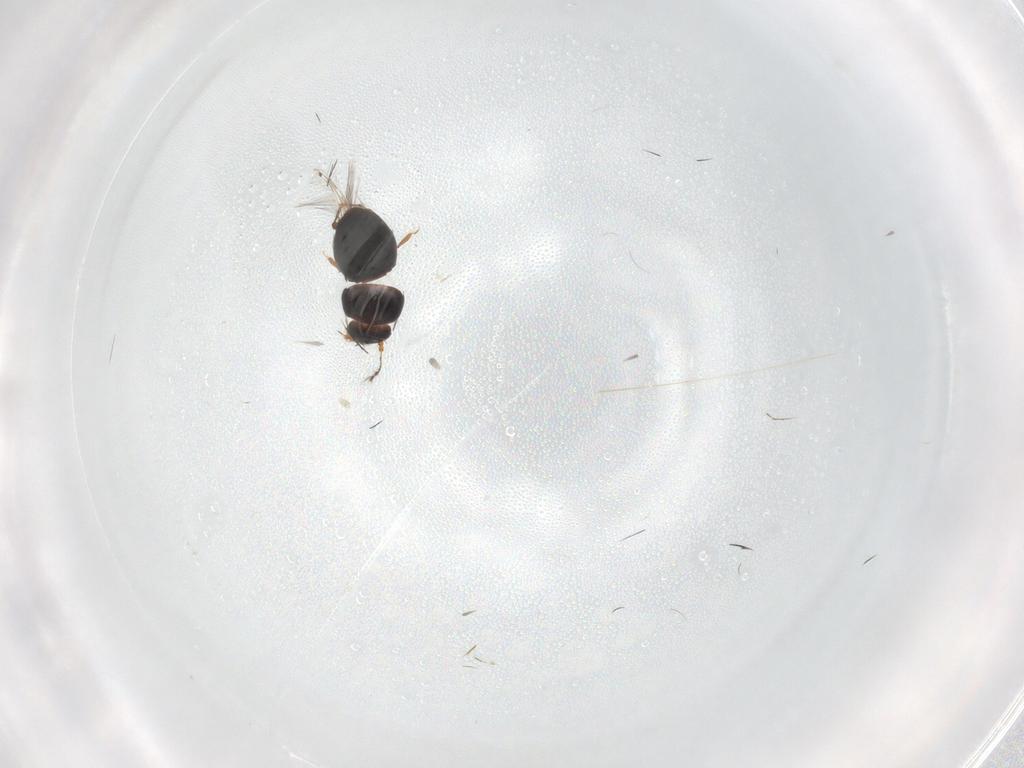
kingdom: Animalia
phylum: Arthropoda
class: Insecta
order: Coleoptera
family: Ptiliidae
